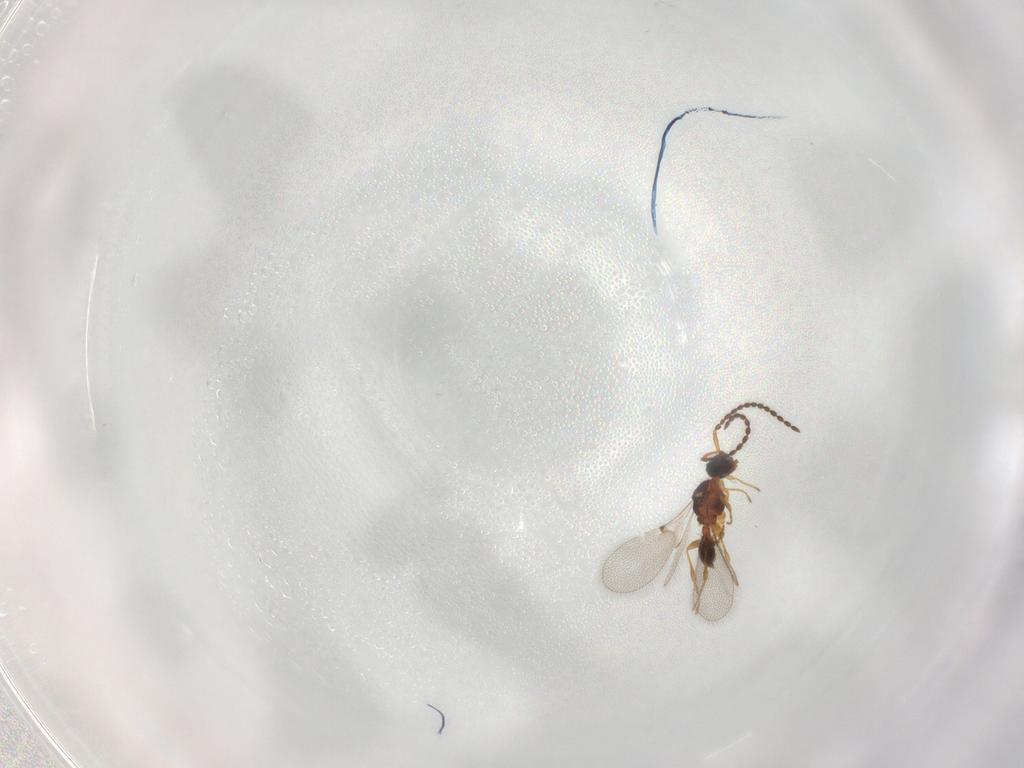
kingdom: Animalia
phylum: Arthropoda
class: Insecta
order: Hymenoptera
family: Diapriidae
